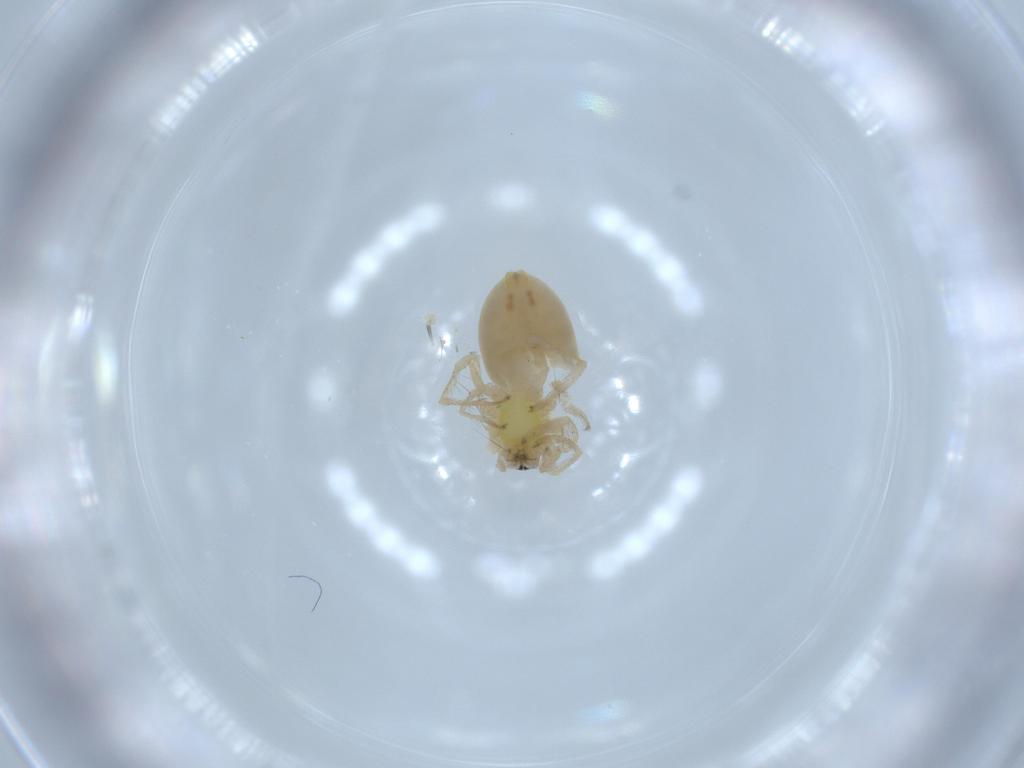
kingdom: Animalia
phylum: Arthropoda
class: Arachnida
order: Araneae
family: Anyphaenidae
